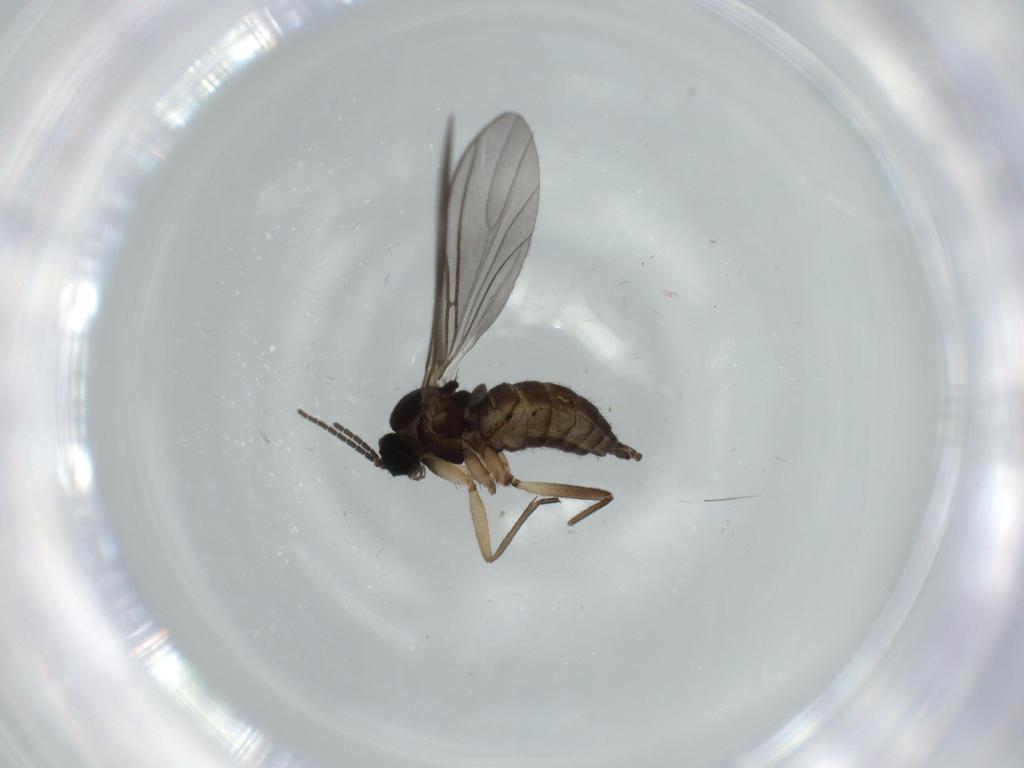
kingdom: Animalia
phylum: Arthropoda
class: Insecta
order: Diptera
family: Sciaridae
